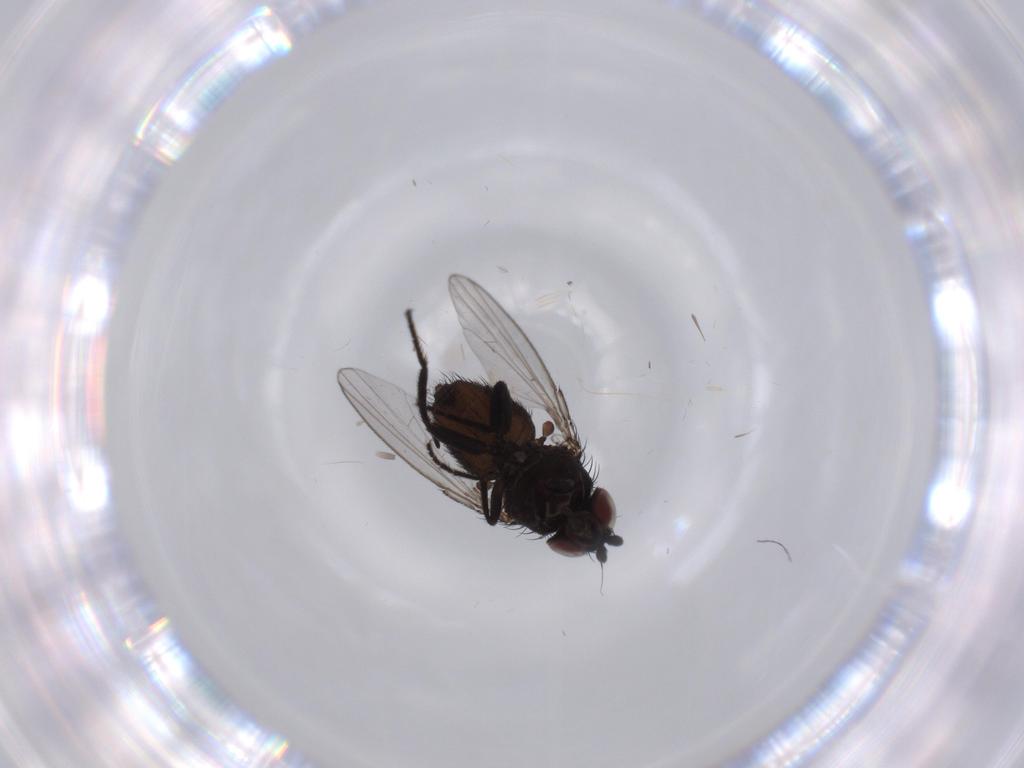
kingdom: Animalia
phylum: Arthropoda
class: Insecta
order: Diptera
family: Milichiidae
